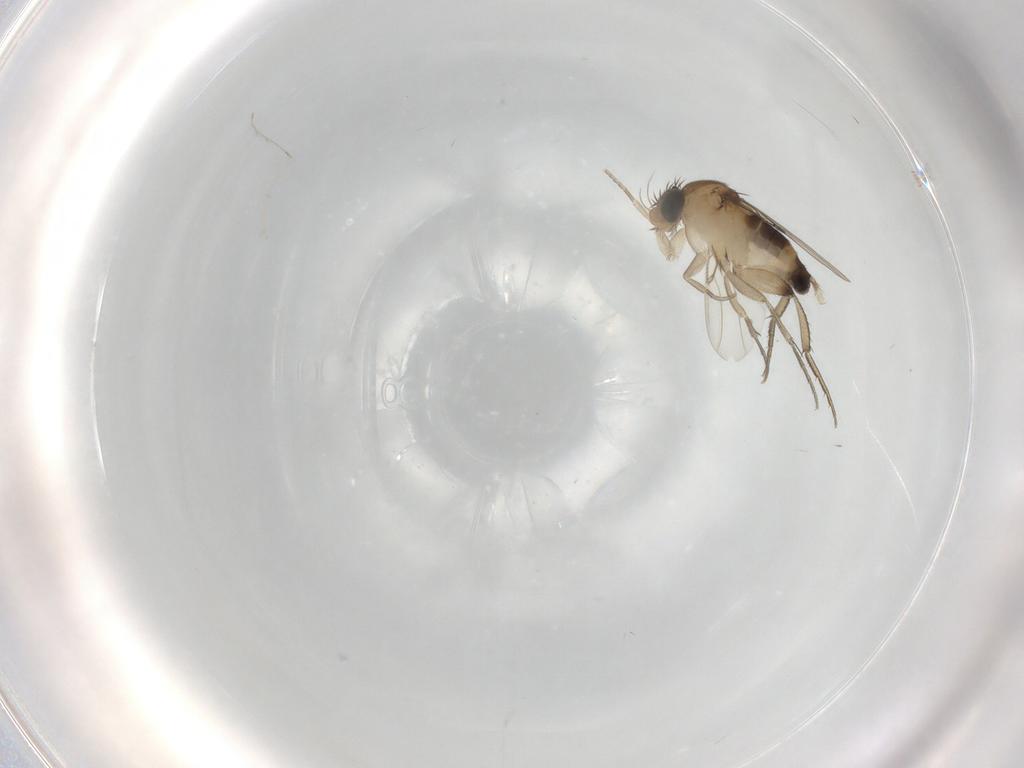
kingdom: Animalia
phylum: Arthropoda
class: Insecta
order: Diptera
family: Phoridae
